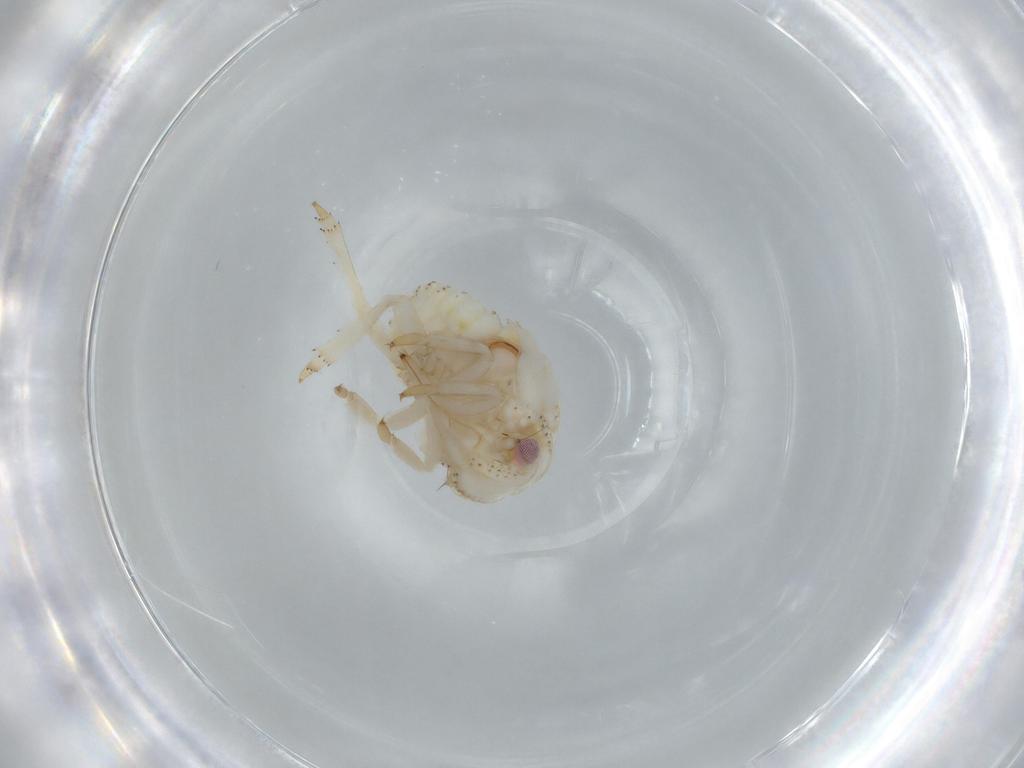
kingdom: Animalia
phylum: Arthropoda
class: Insecta
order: Hemiptera
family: Acanaloniidae
